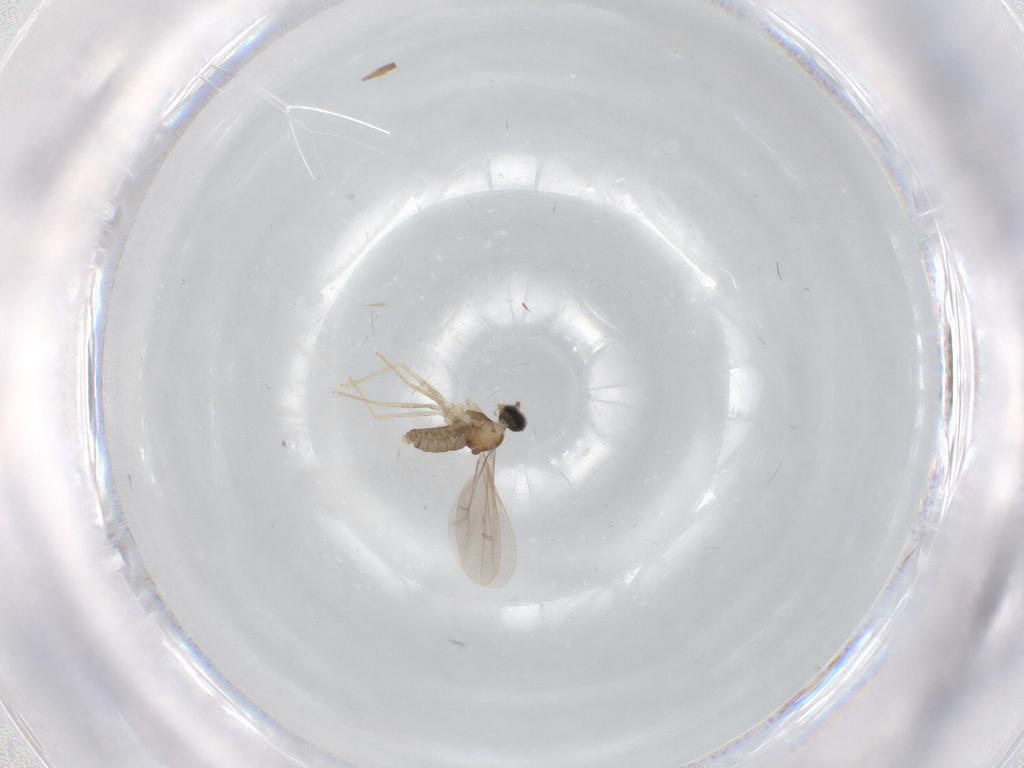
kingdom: Animalia
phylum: Arthropoda
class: Insecta
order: Diptera
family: Cecidomyiidae
